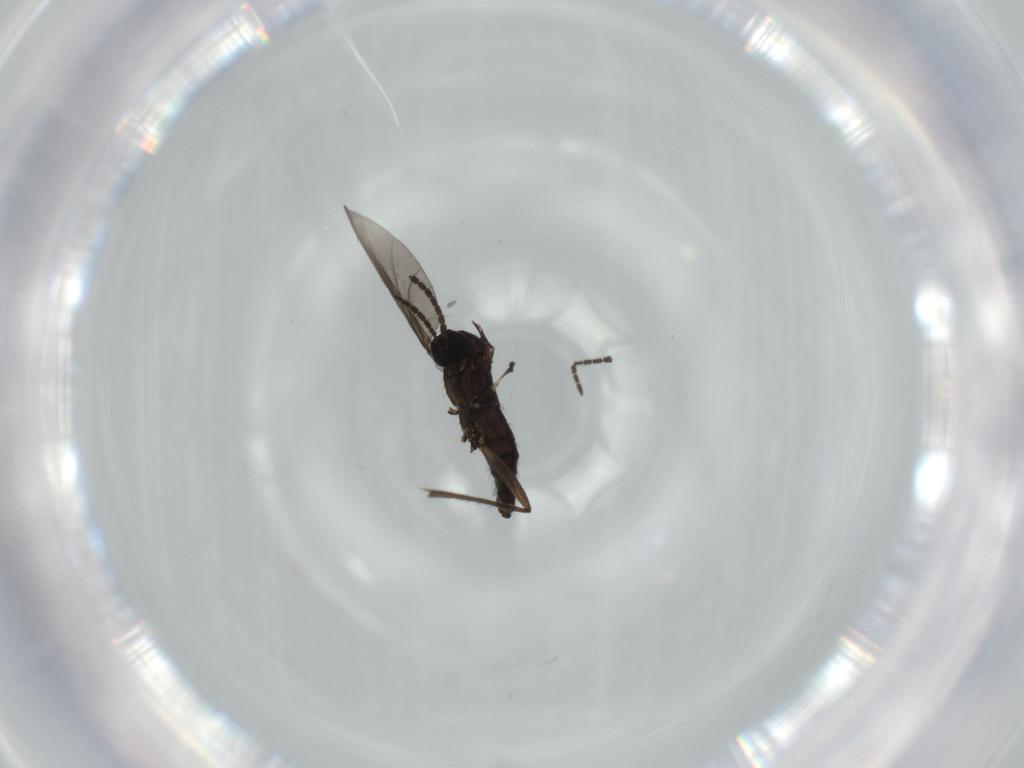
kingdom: Animalia
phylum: Arthropoda
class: Insecta
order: Diptera
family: Sciaridae
